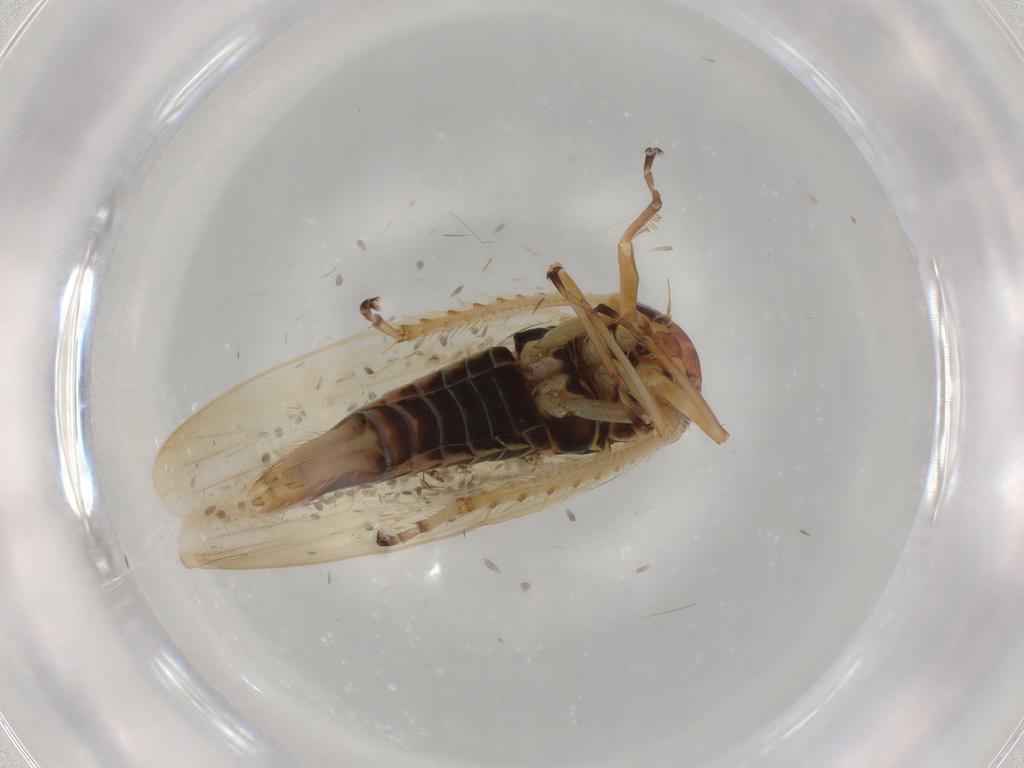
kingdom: Animalia
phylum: Arthropoda
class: Insecta
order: Hemiptera
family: Cicadellidae
